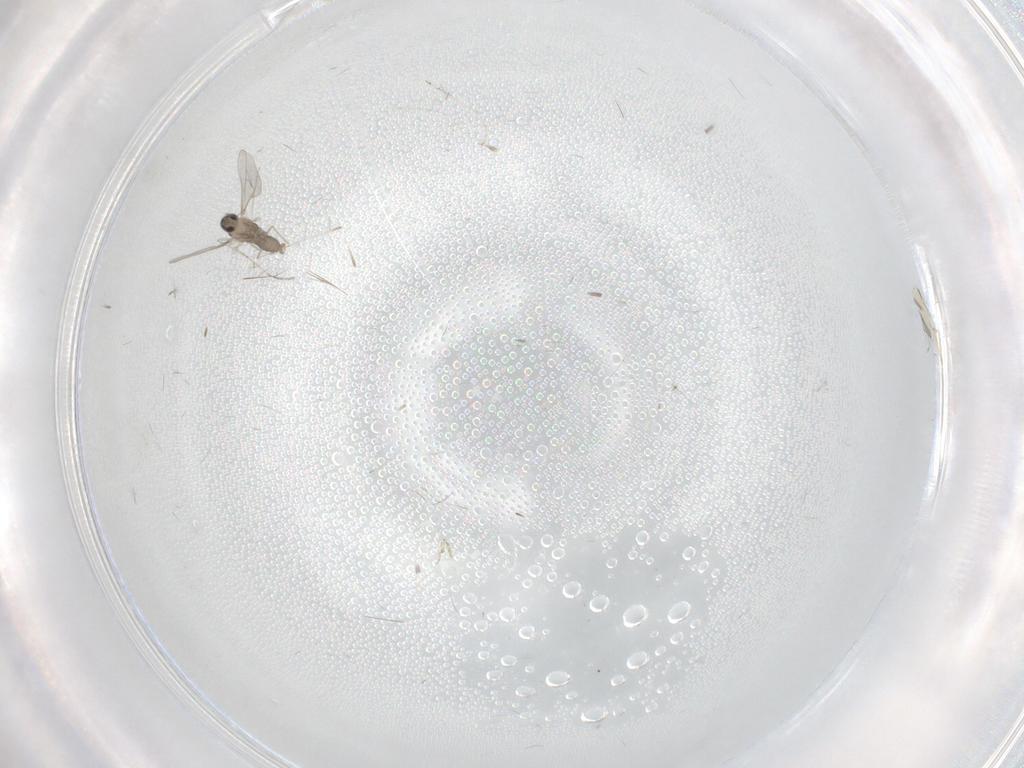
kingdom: Animalia
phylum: Arthropoda
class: Insecta
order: Diptera
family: Cecidomyiidae
